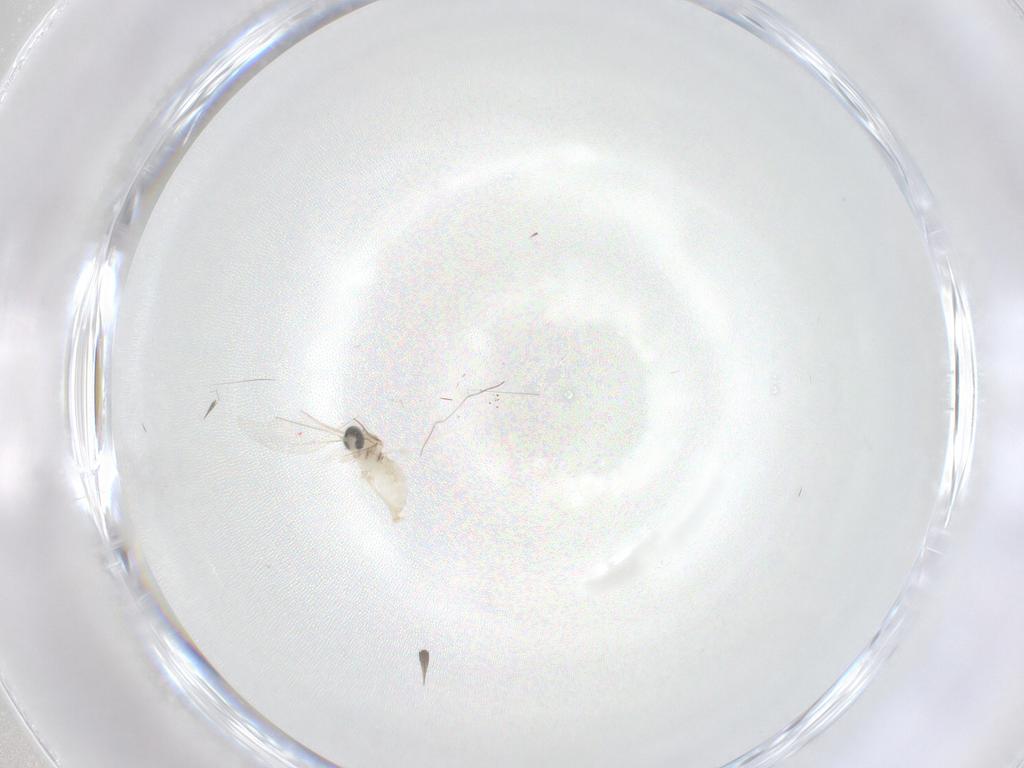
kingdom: Animalia
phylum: Arthropoda
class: Insecta
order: Diptera
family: Cecidomyiidae
